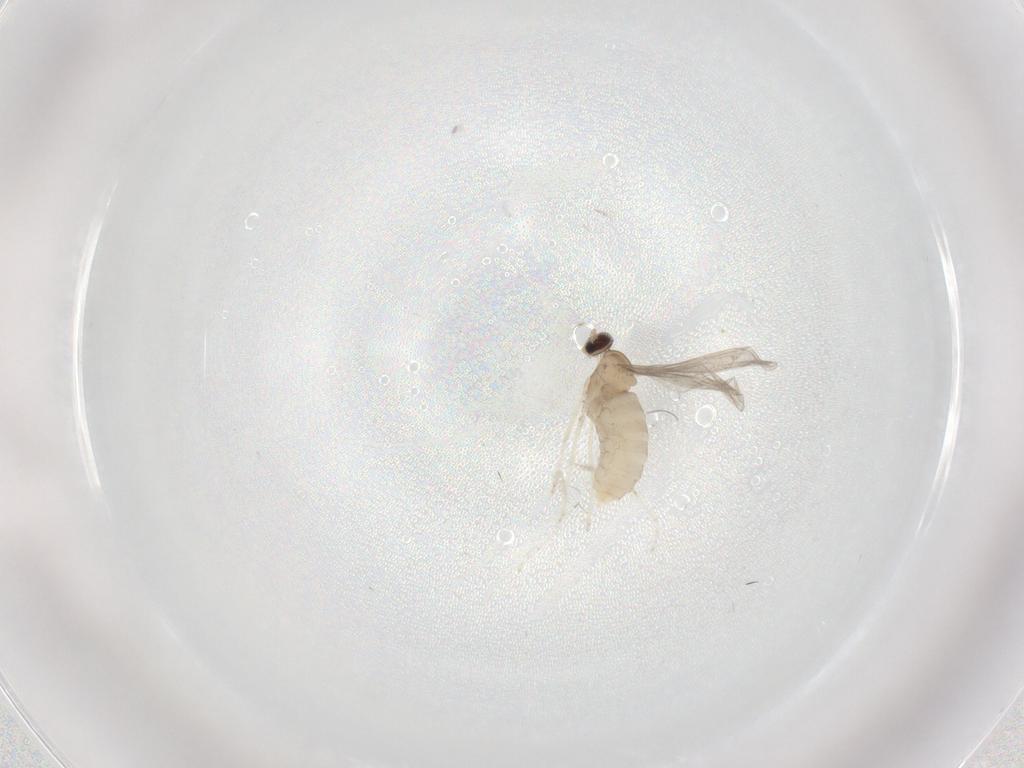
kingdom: Animalia
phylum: Arthropoda
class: Insecta
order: Diptera
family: Cecidomyiidae
